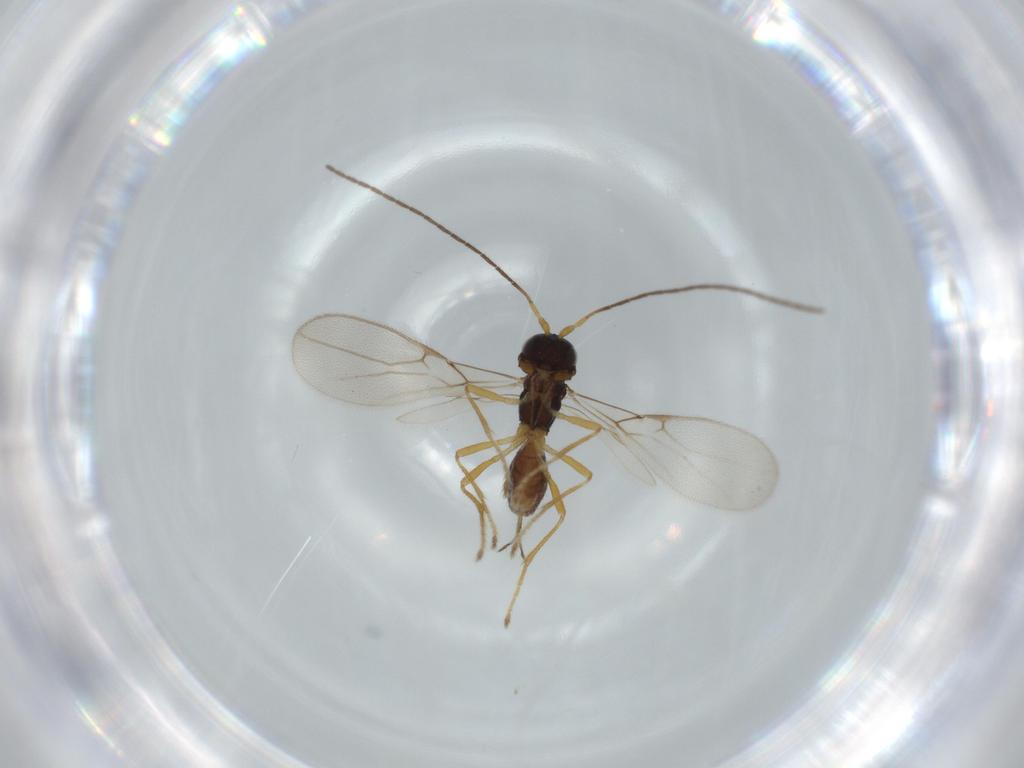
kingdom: Animalia
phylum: Arthropoda
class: Insecta
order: Hymenoptera
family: Braconidae
